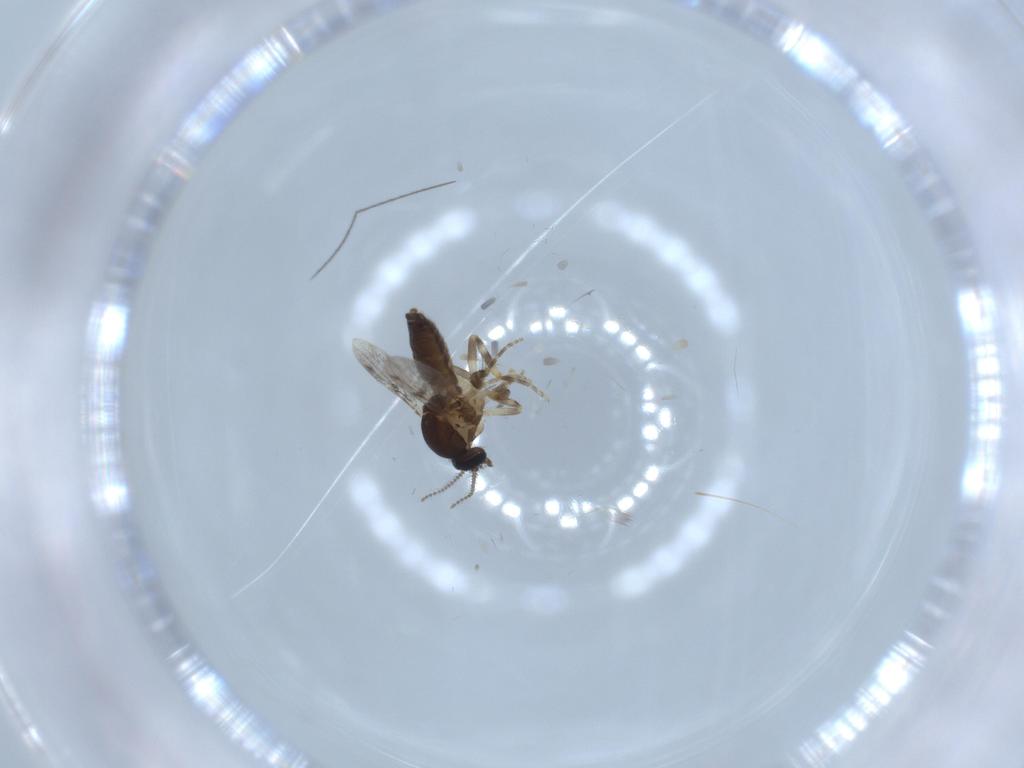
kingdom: Animalia
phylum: Arthropoda
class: Insecta
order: Diptera
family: Ceratopogonidae
